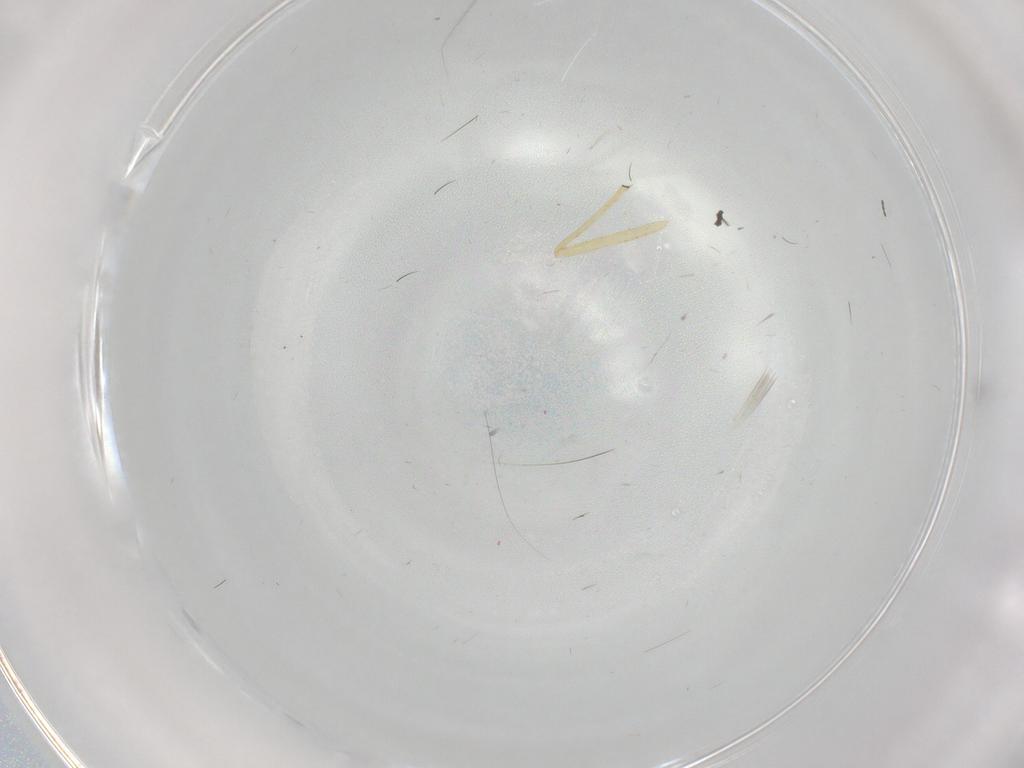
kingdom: Animalia
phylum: Arthropoda
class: Insecta
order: Diptera
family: Chironomidae
